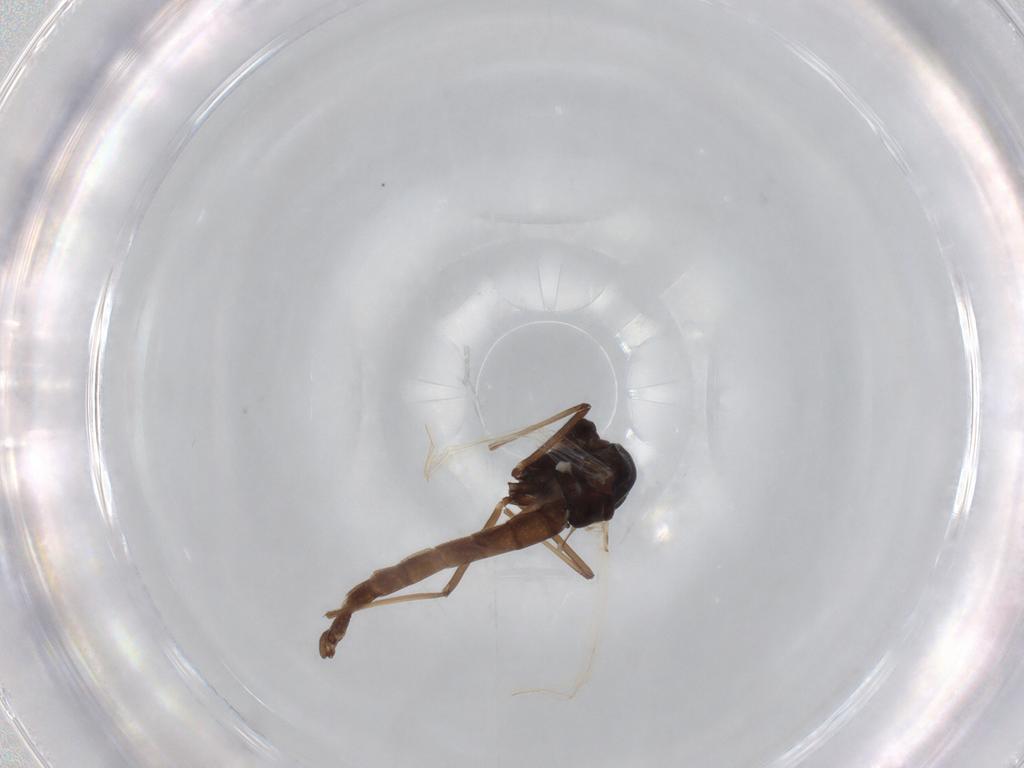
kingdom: Animalia
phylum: Arthropoda
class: Insecta
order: Diptera
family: Chironomidae
